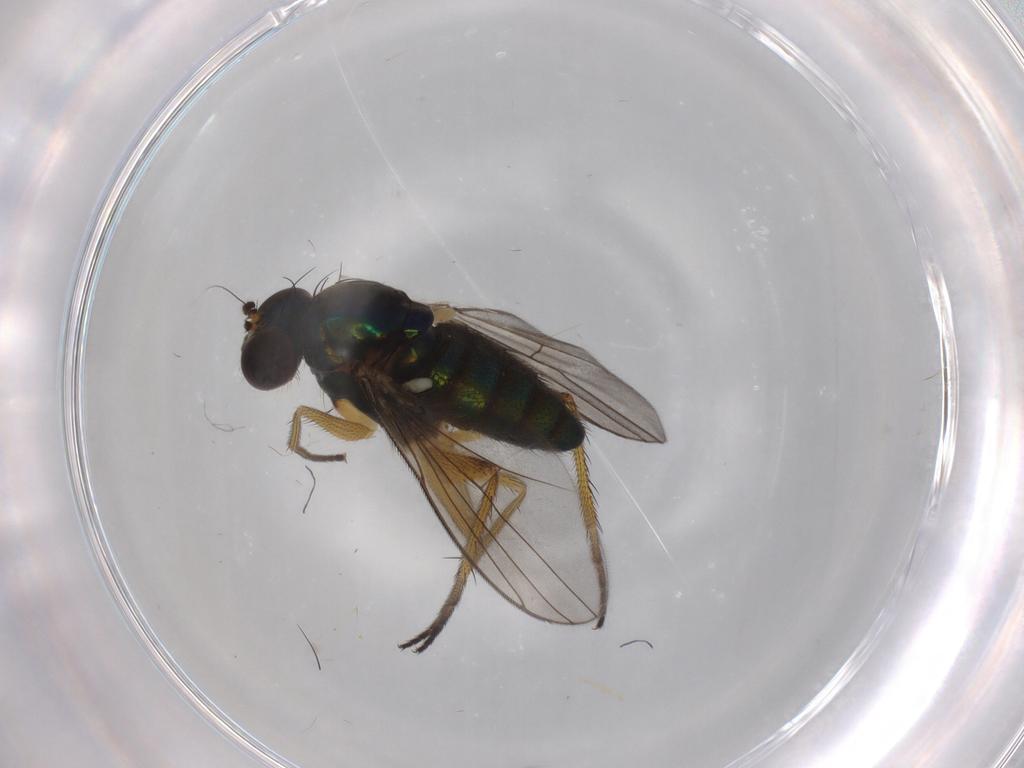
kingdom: Animalia
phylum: Arthropoda
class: Insecta
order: Diptera
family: Dolichopodidae
